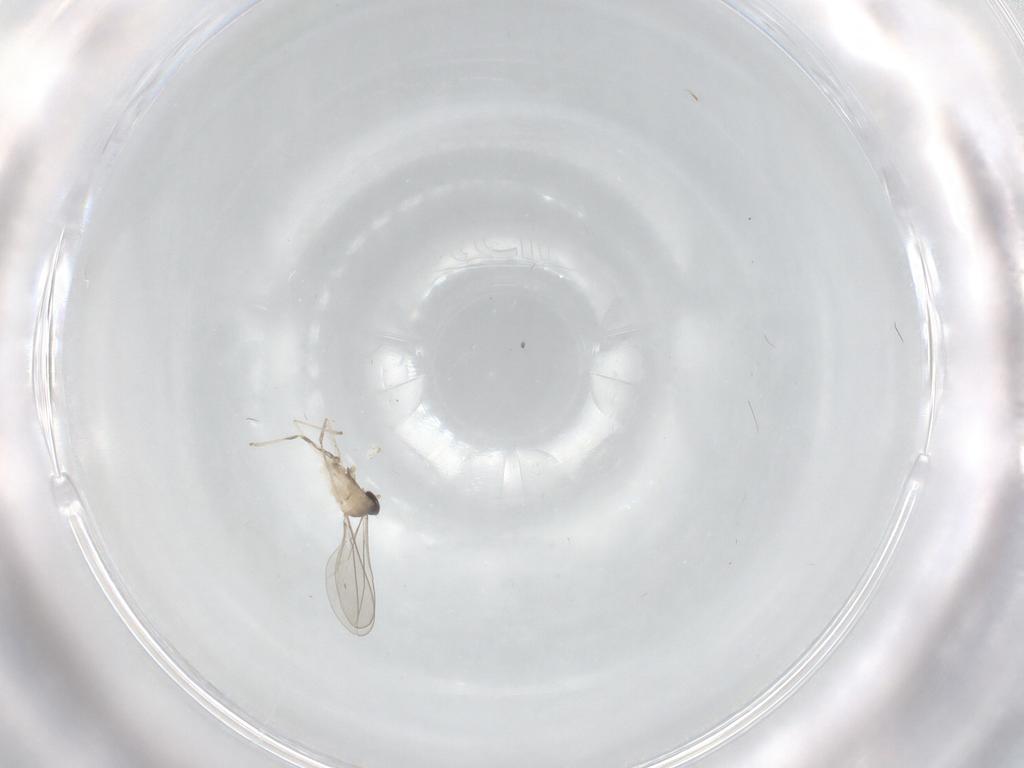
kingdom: Animalia
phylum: Arthropoda
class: Insecta
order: Diptera
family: Cecidomyiidae
